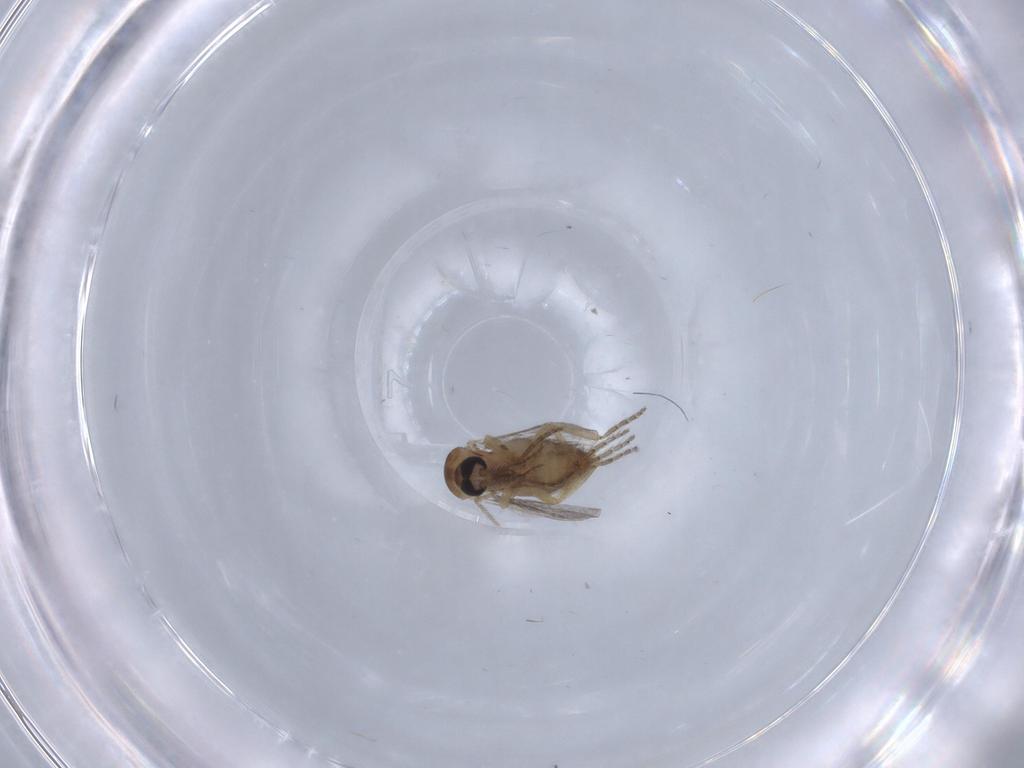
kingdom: Animalia
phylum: Arthropoda
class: Insecta
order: Diptera
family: Ceratopogonidae
